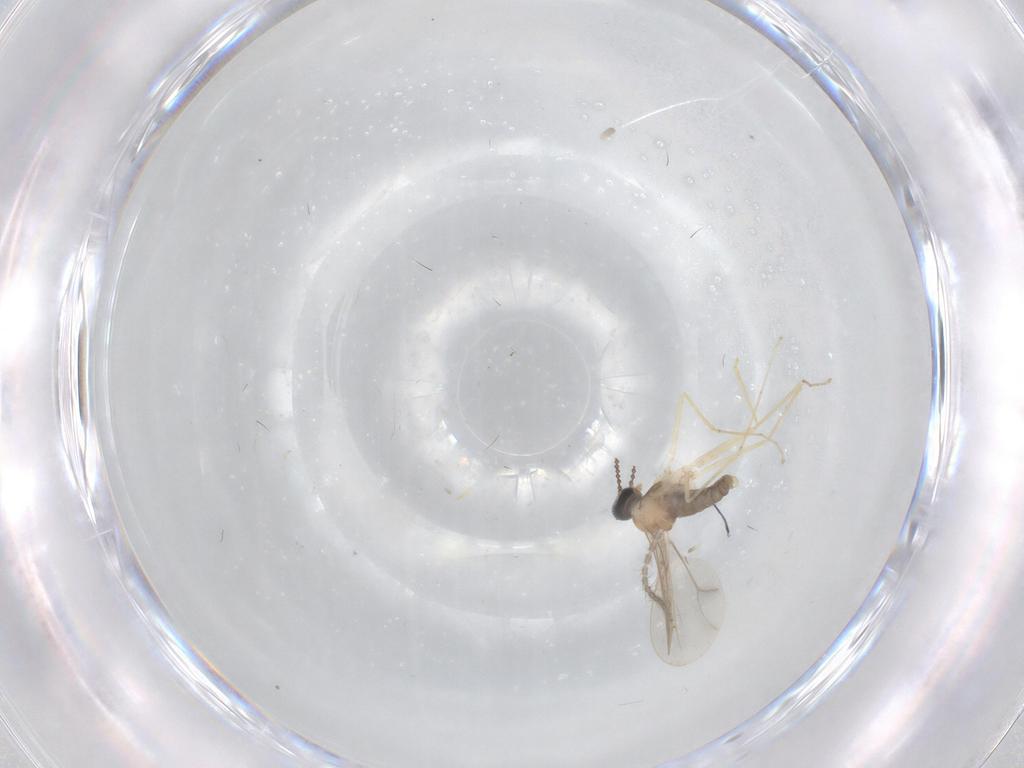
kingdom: Animalia
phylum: Arthropoda
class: Insecta
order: Diptera
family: Cecidomyiidae
